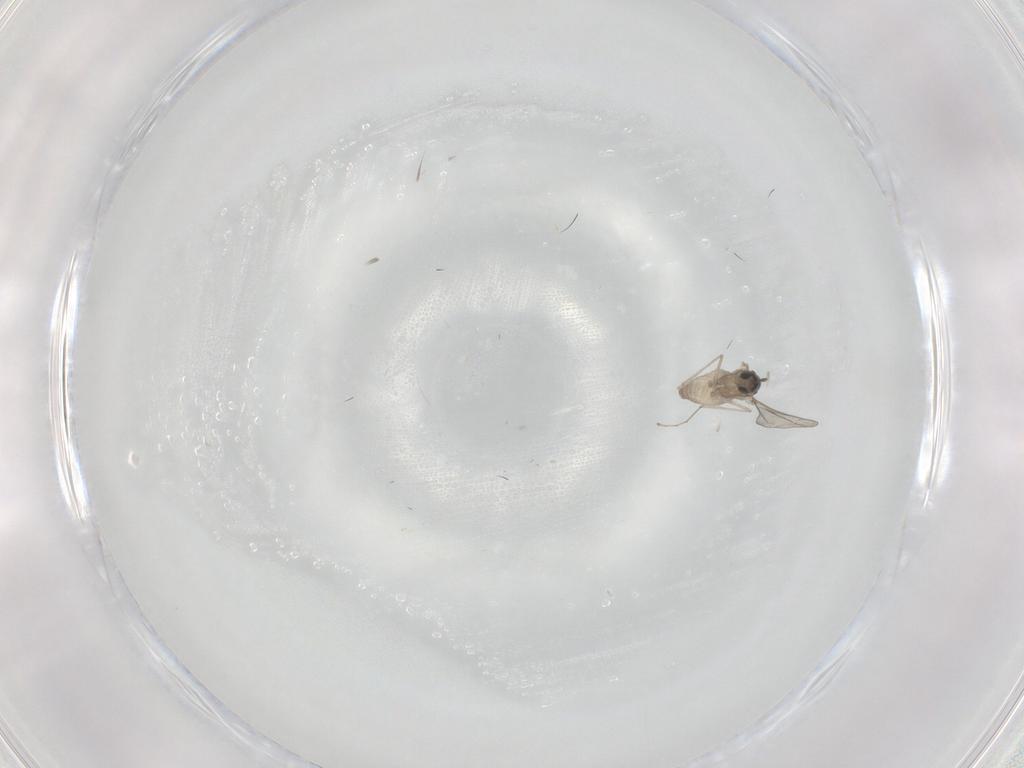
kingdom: Animalia
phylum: Arthropoda
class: Insecta
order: Diptera
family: Cecidomyiidae
